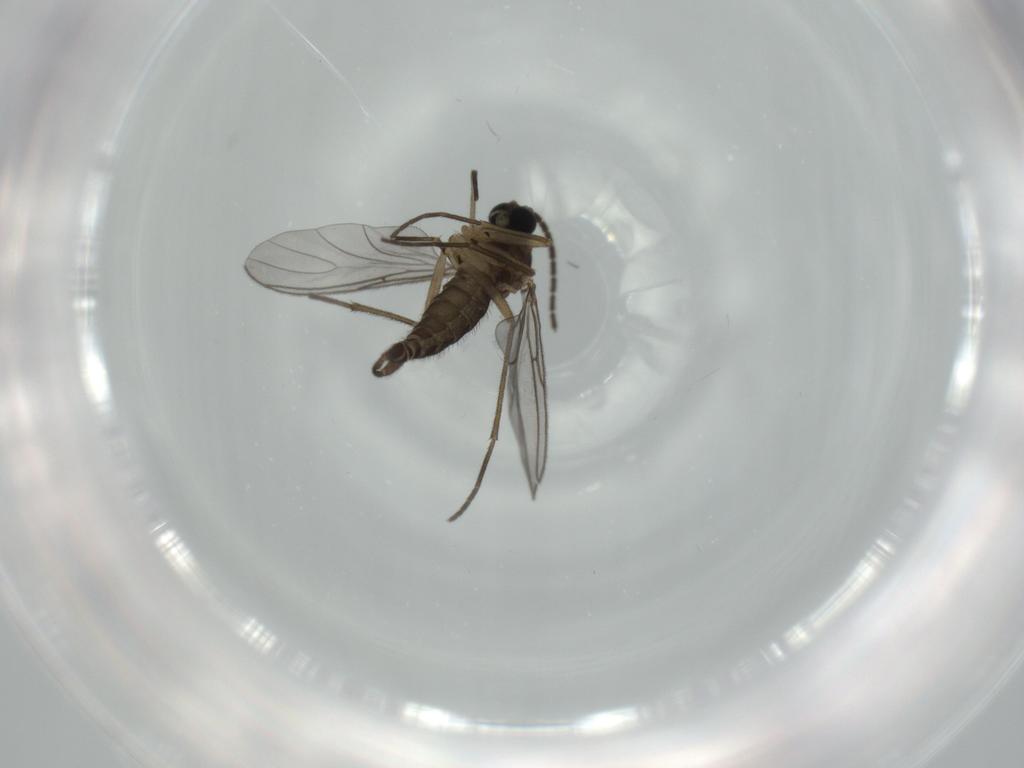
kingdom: Animalia
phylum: Arthropoda
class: Insecta
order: Diptera
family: Sciaridae
